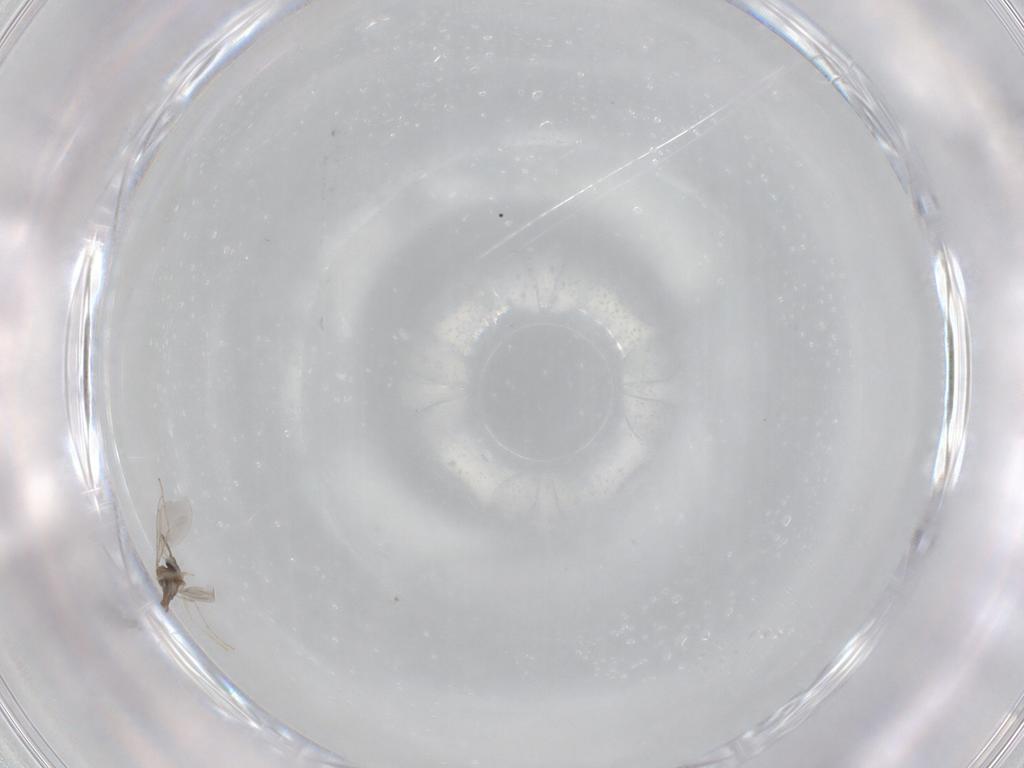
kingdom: Animalia
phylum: Arthropoda
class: Insecta
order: Diptera
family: Cecidomyiidae
